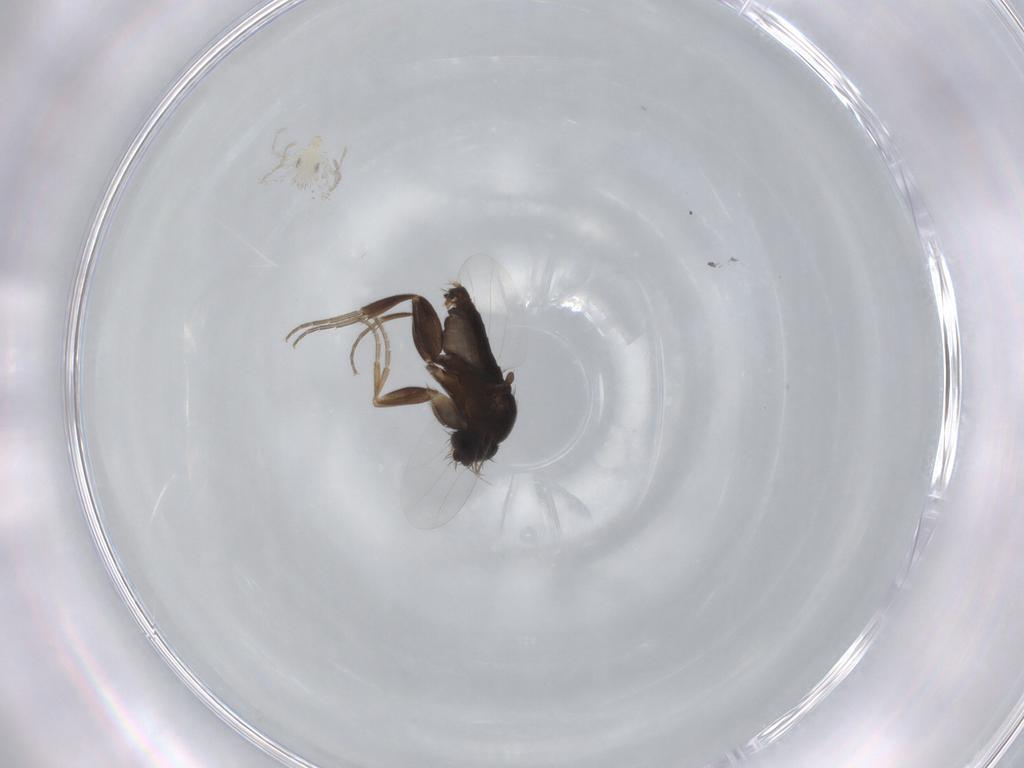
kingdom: Animalia
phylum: Arthropoda
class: Insecta
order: Diptera
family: Phoridae
